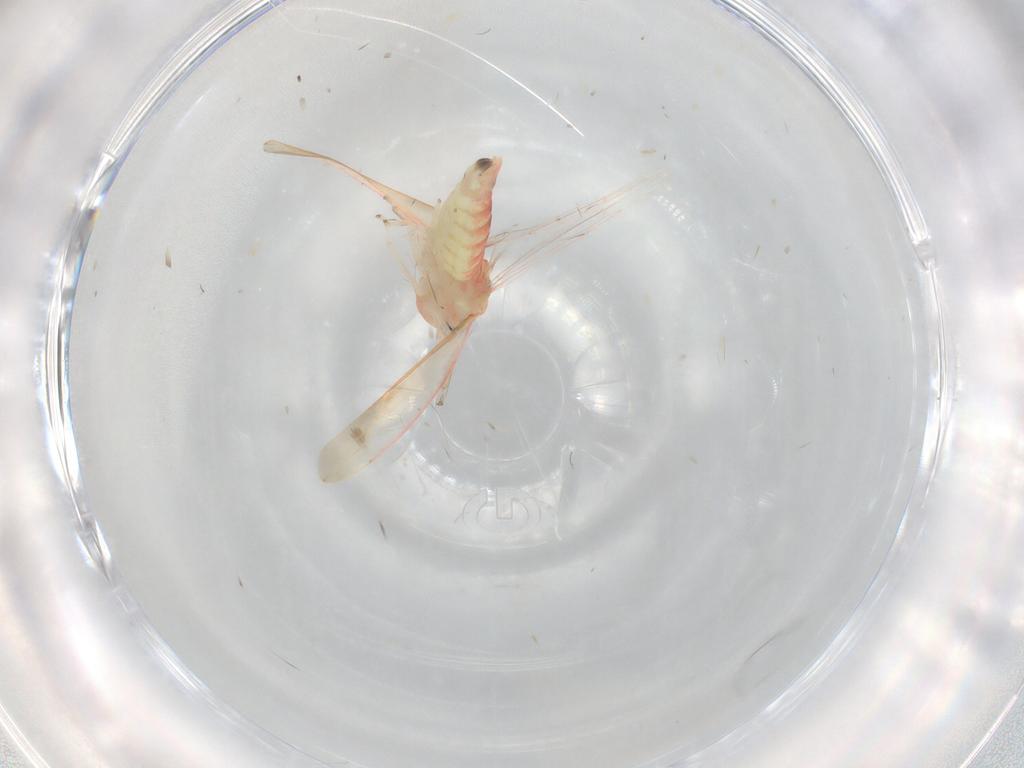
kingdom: Animalia
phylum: Arthropoda
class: Insecta
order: Hemiptera
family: Cicadellidae
